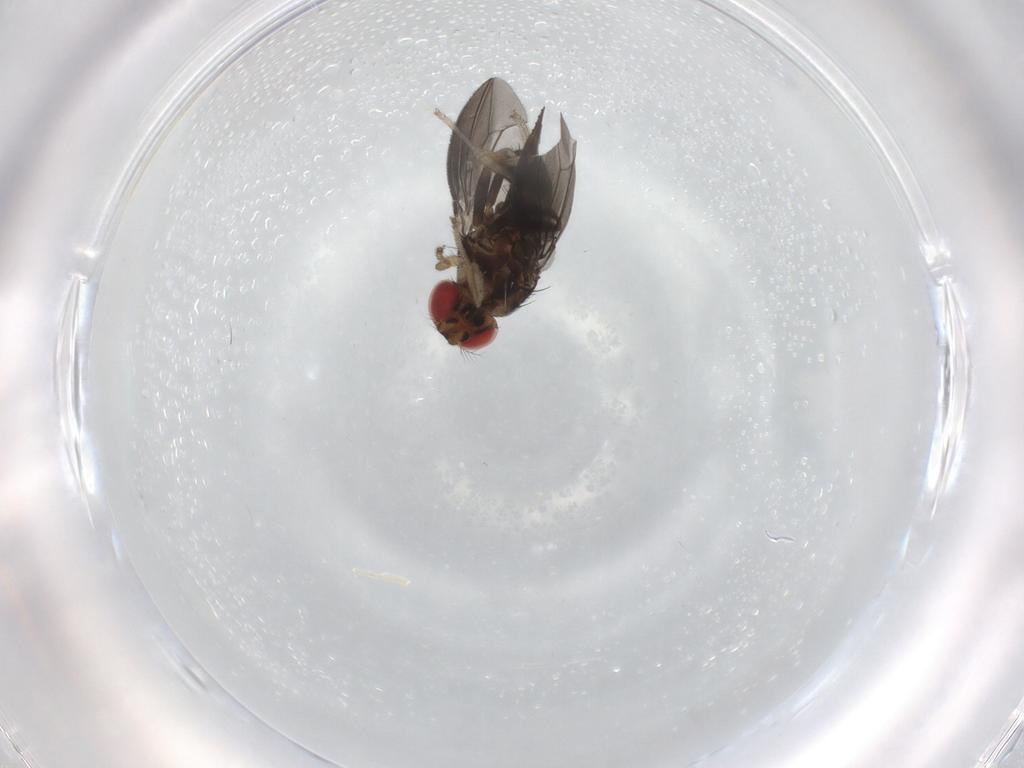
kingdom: Animalia
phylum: Arthropoda
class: Insecta
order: Diptera
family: Drosophilidae
